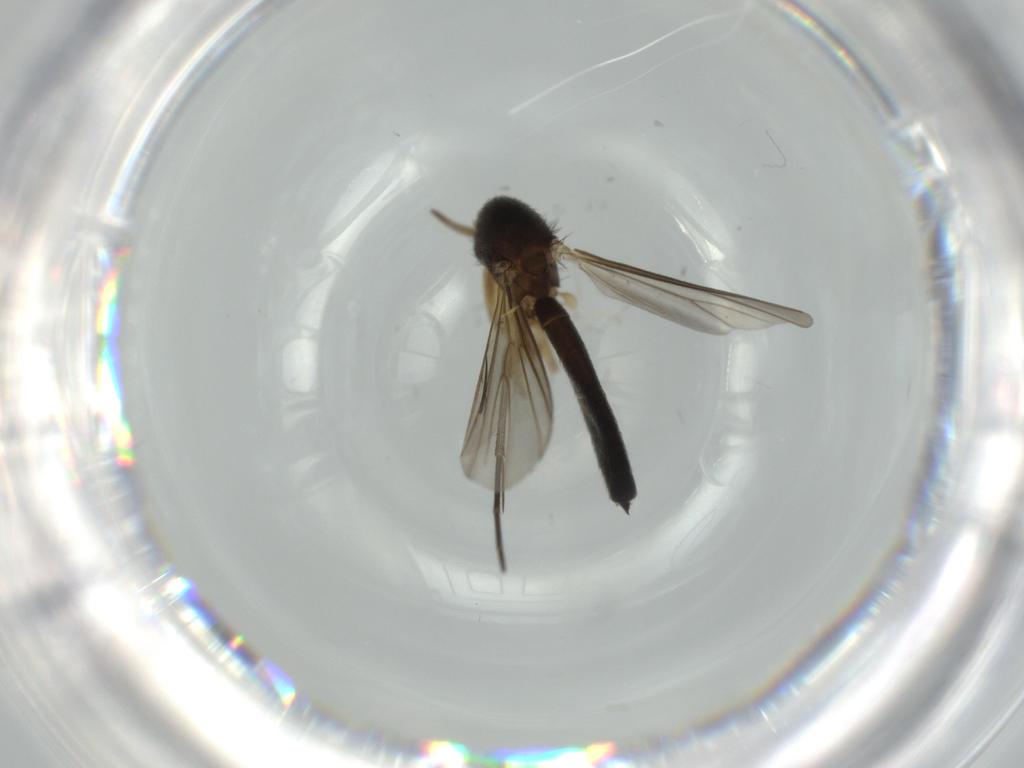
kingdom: Animalia
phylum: Arthropoda
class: Insecta
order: Diptera
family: Mycetophilidae
